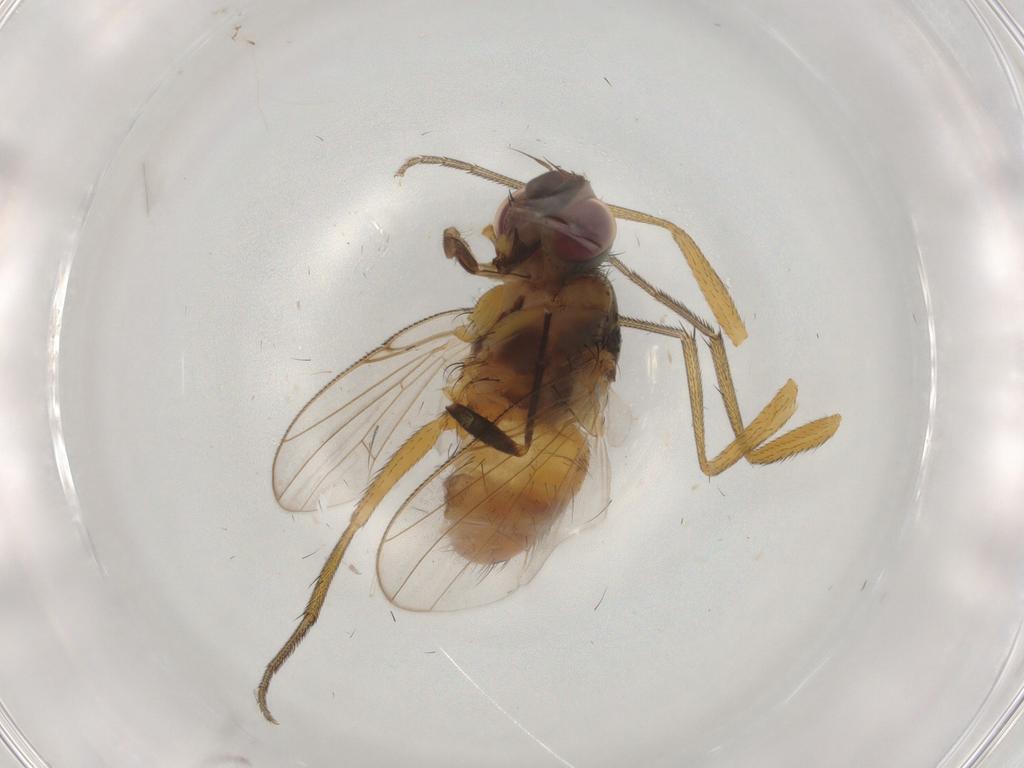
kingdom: Animalia
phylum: Arthropoda
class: Insecta
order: Diptera
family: Muscidae
